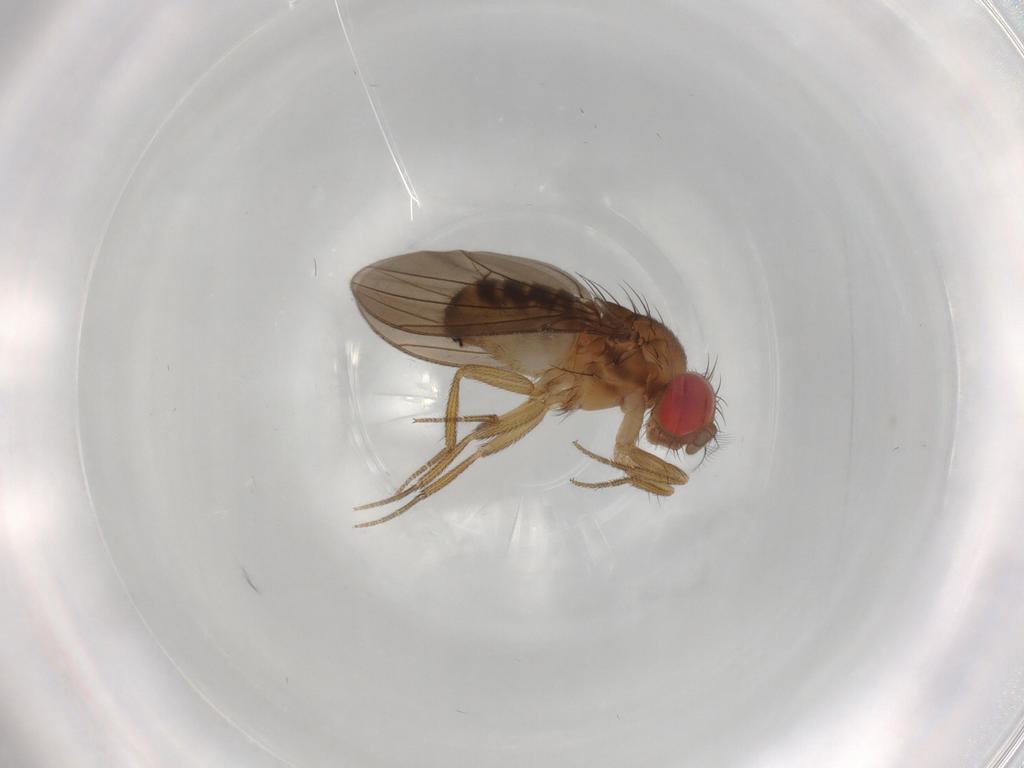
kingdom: Animalia
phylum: Arthropoda
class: Insecta
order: Diptera
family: Drosophilidae
